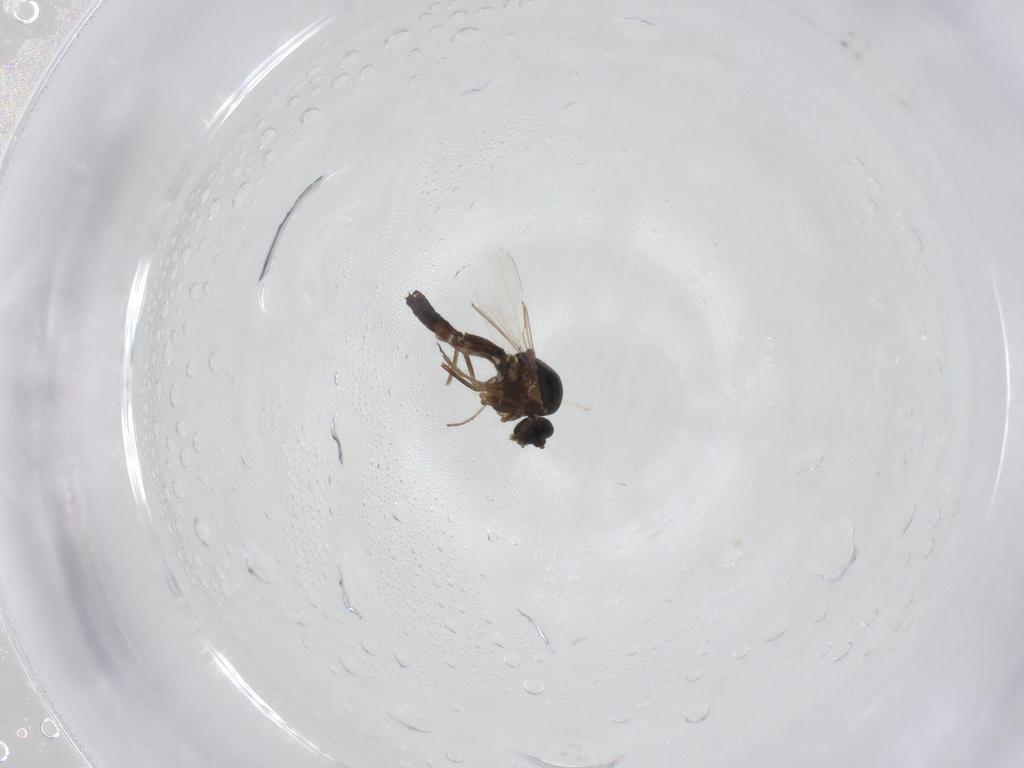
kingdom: Animalia
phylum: Arthropoda
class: Insecta
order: Diptera
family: Ceratopogonidae
